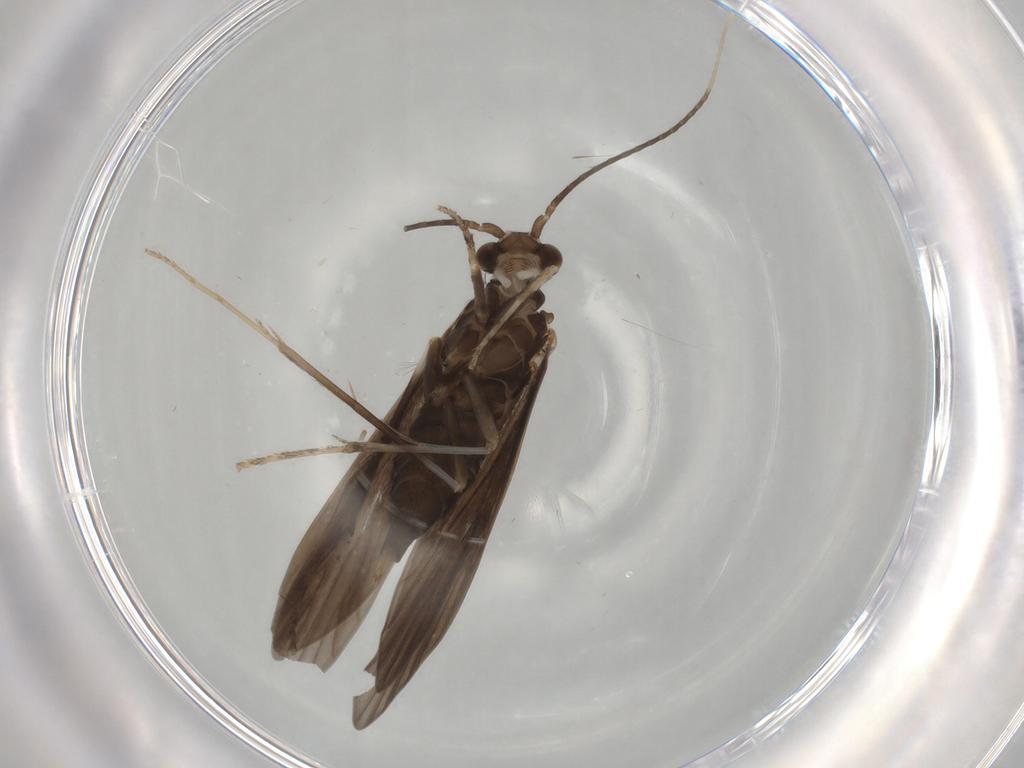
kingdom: Animalia
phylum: Arthropoda
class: Insecta
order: Trichoptera
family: Xiphocentronidae
